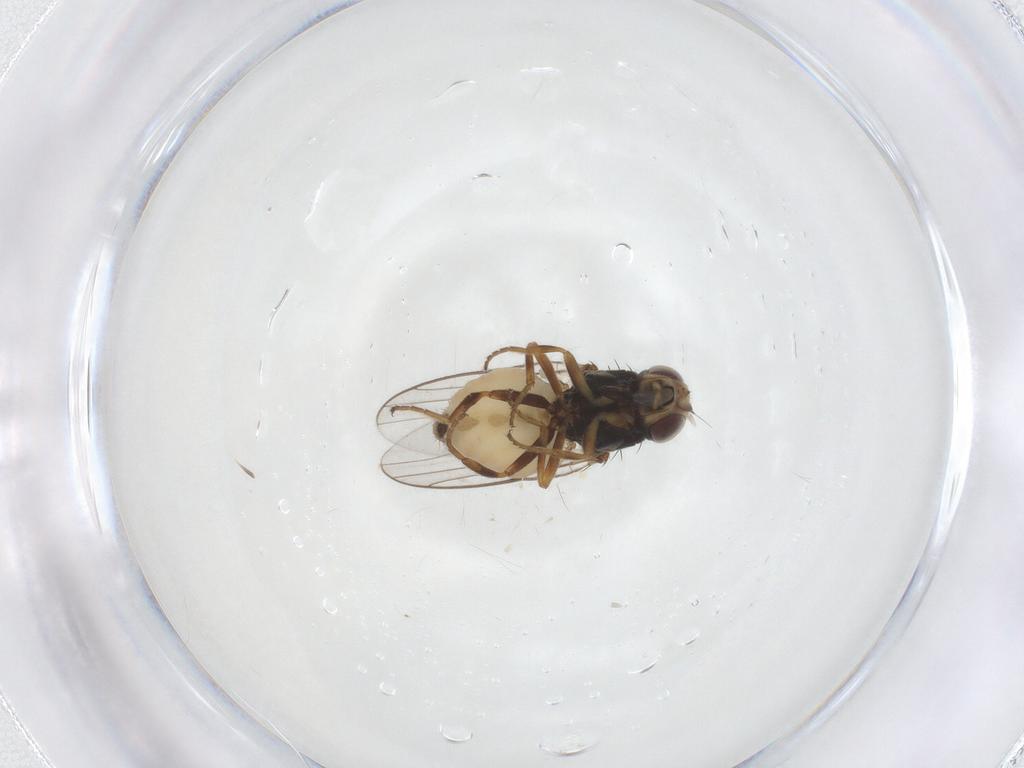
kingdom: Animalia
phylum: Arthropoda
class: Insecta
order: Diptera
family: Chloropidae
